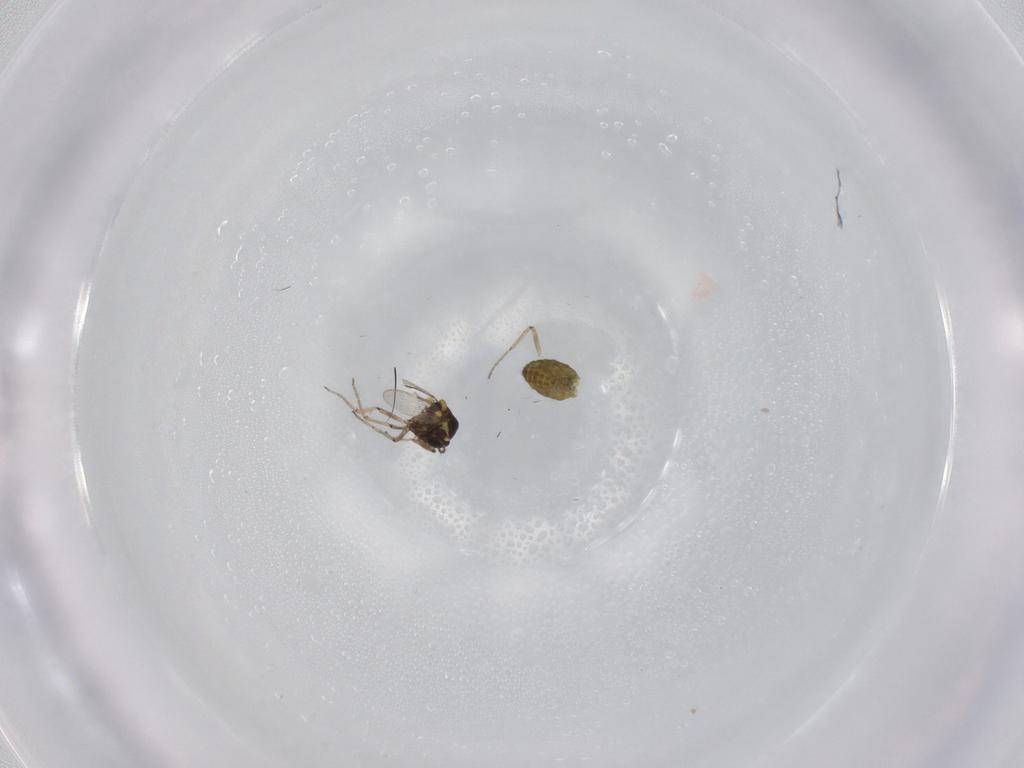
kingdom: Animalia
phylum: Arthropoda
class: Insecta
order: Diptera
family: Ceratopogonidae
